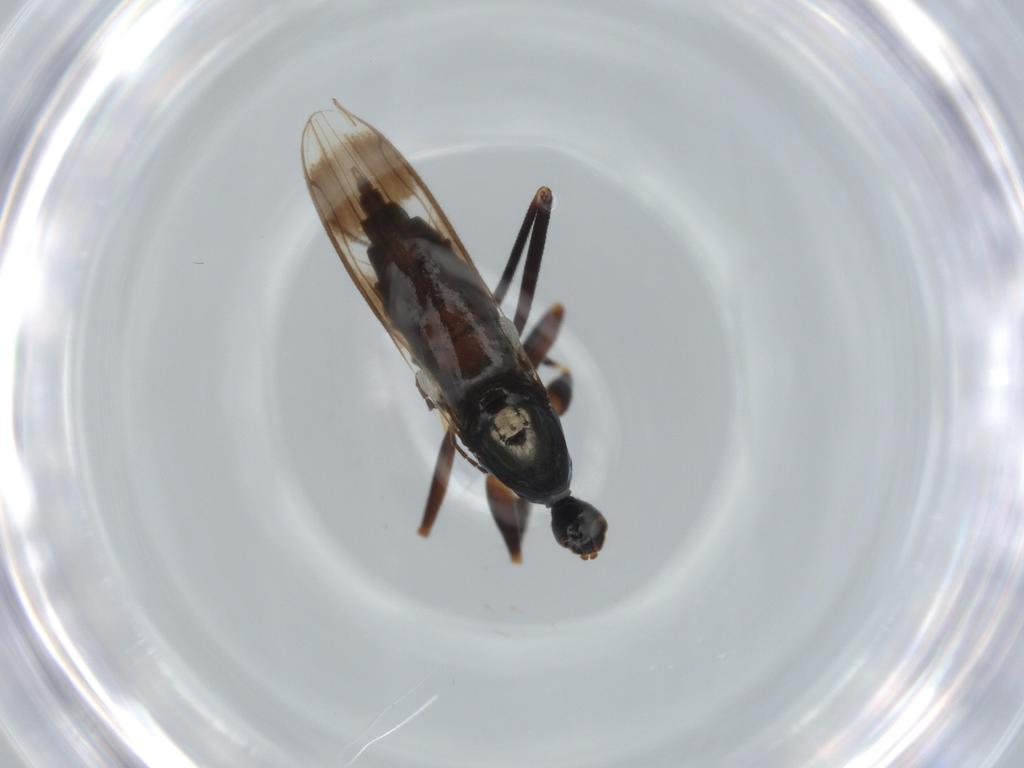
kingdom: Animalia
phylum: Arthropoda
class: Insecta
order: Diptera
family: Hybotidae
